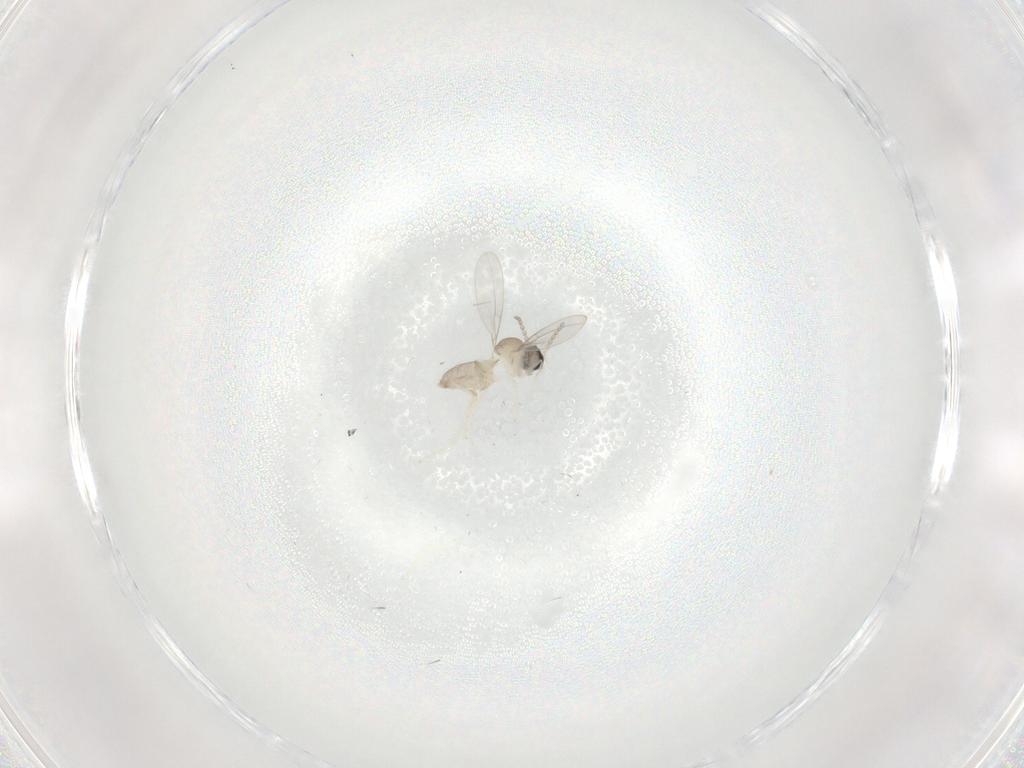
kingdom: Animalia
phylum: Arthropoda
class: Insecta
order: Diptera
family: Cecidomyiidae
